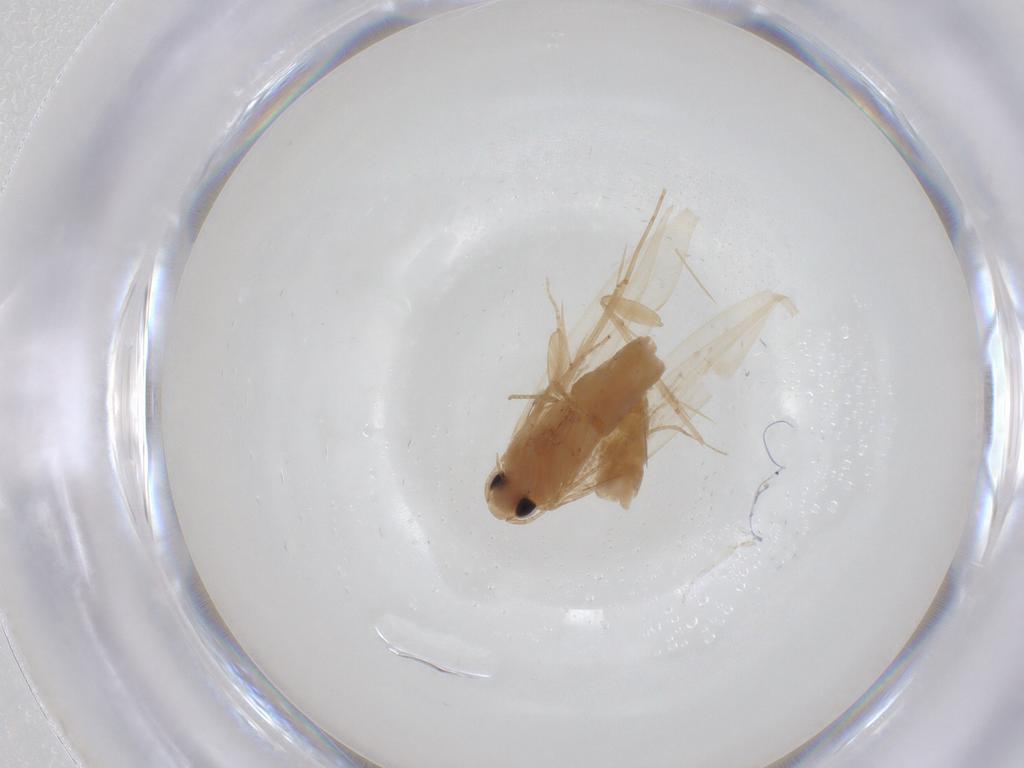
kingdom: Animalia
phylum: Arthropoda
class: Insecta
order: Lepidoptera
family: Tineidae
